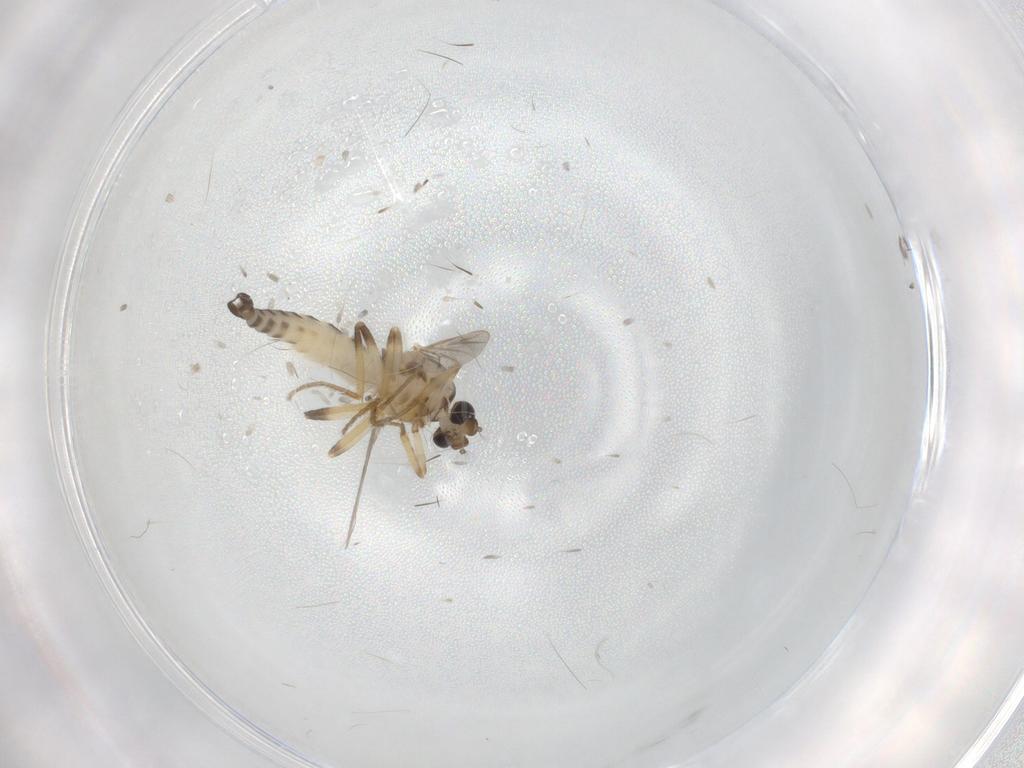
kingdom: Animalia
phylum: Arthropoda
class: Insecta
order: Diptera
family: Ceratopogonidae
